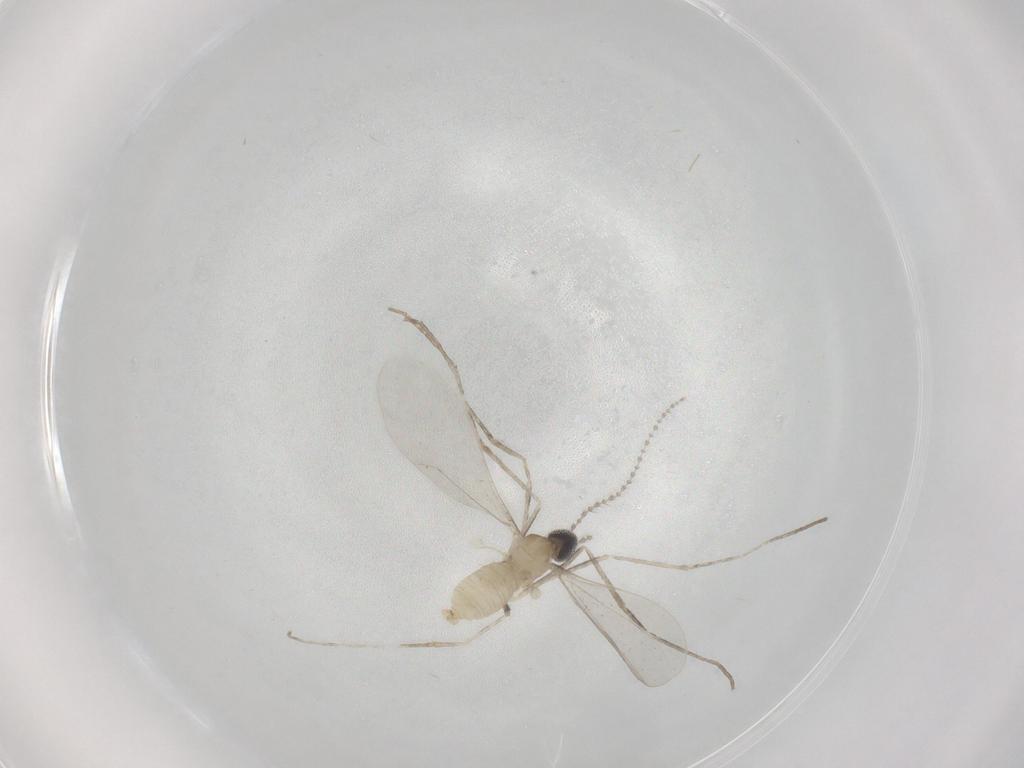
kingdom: Animalia
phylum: Arthropoda
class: Insecta
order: Diptera
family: Cecidomyiidae
